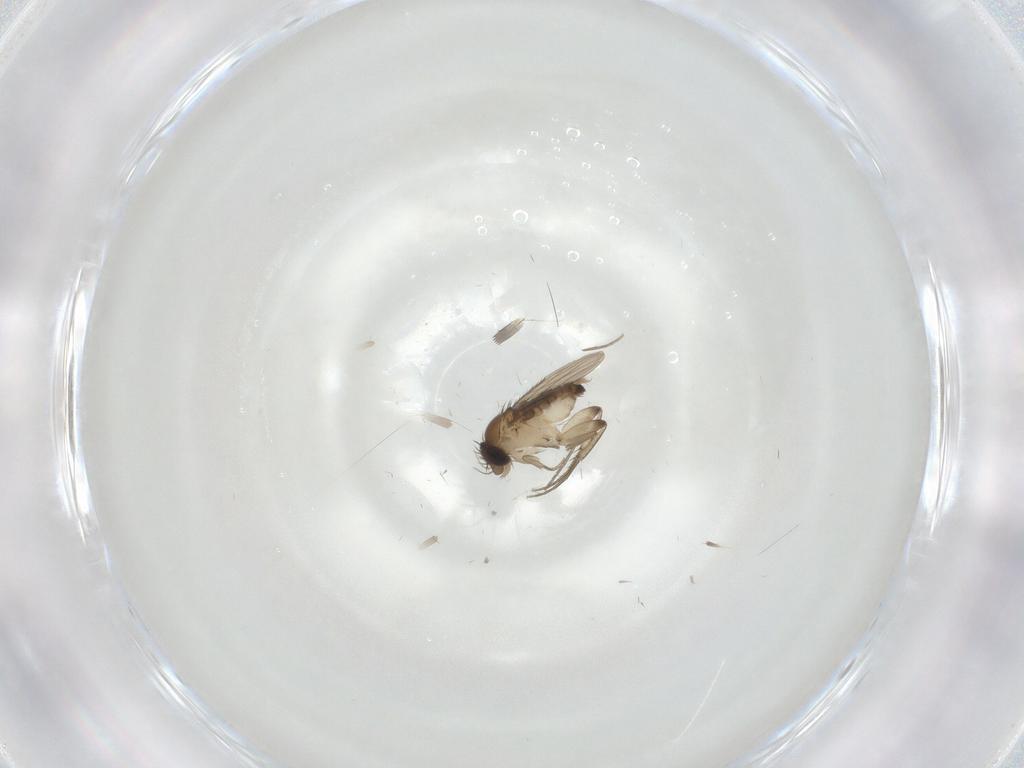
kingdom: Animalia
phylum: Arthropoda
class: Insecta
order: Diptera
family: Phoridae
